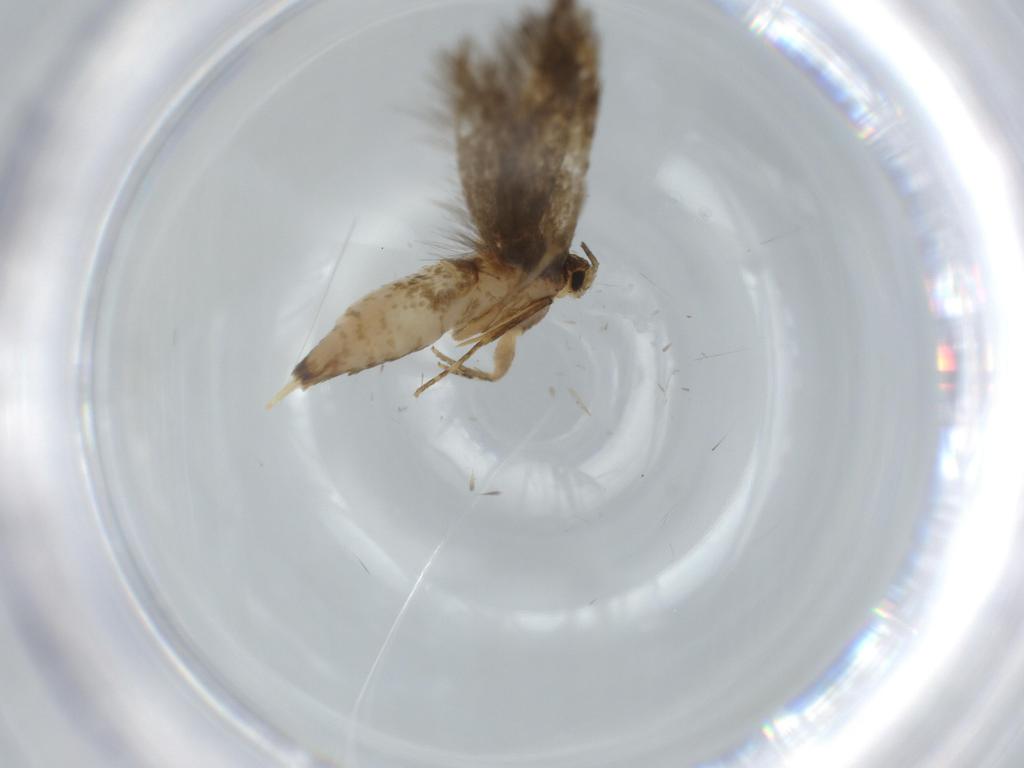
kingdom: Animalia
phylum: Arthropoda
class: Insecta
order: Lepidoptera
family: Tineidae
